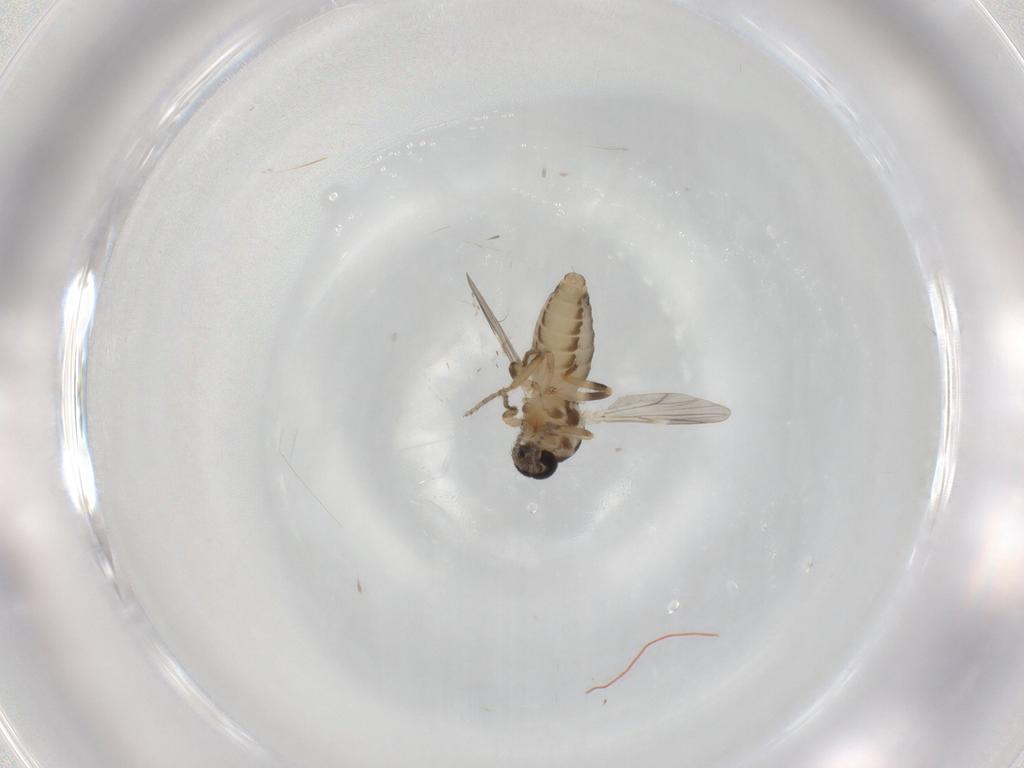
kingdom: Animalia
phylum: Arthropoda
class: Insecta
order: Diptera
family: Ceratopogonidae
